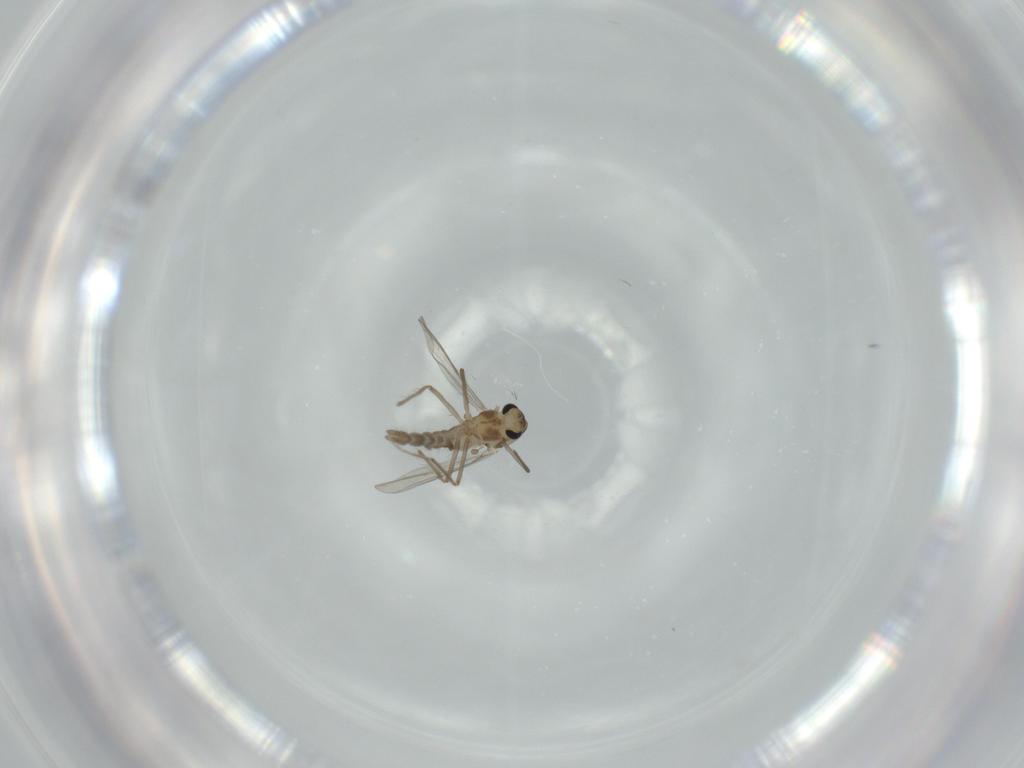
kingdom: Animalia
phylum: Arthropoda
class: Insecta
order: Diptera
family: Chironomidae
